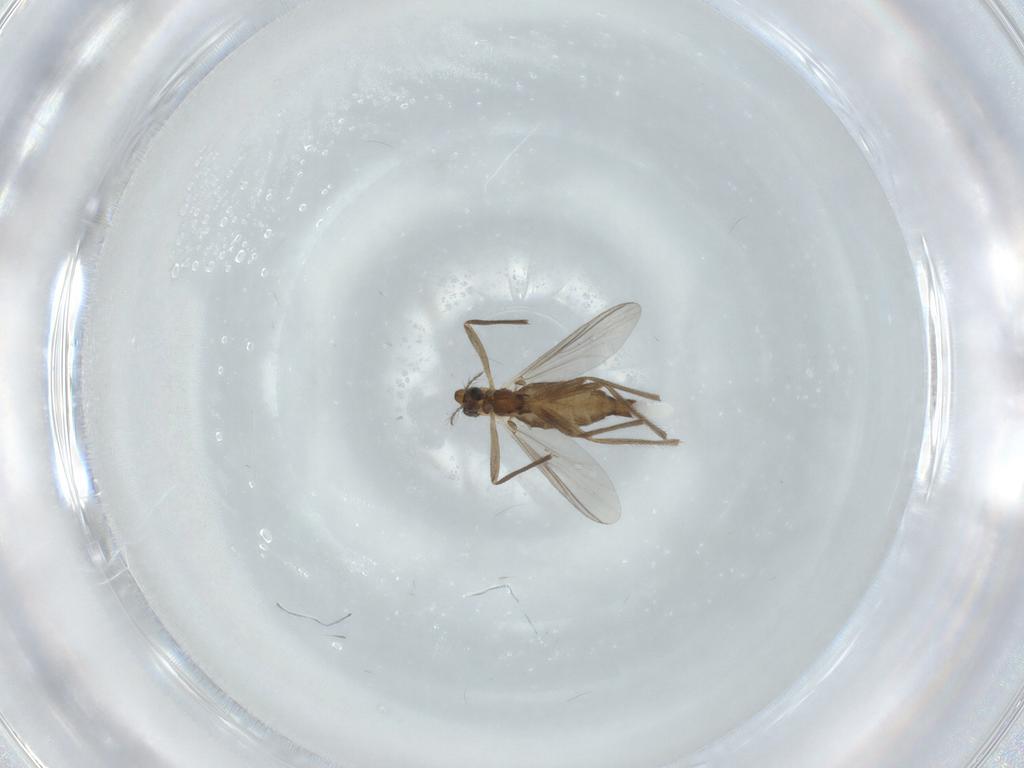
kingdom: Animalia
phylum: Arthropoda
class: Insecta
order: Diptera
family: Chironomidae
